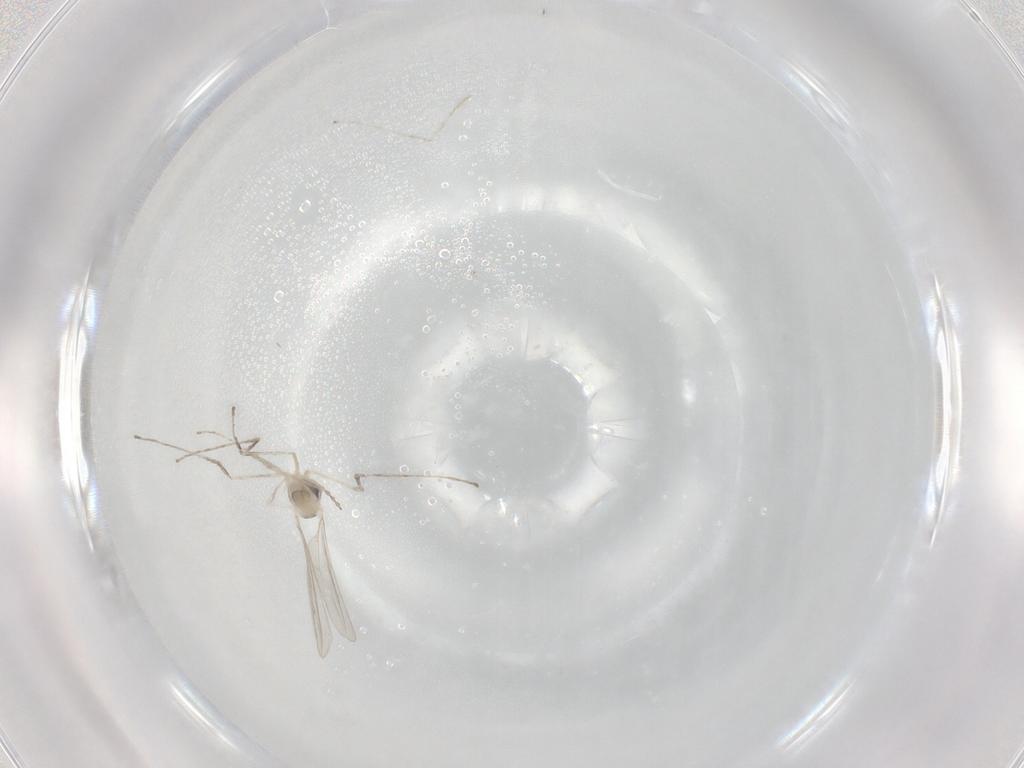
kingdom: Animalia
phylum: Arthropoda
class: Insecta
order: Diptera
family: Cecidomyiidae
